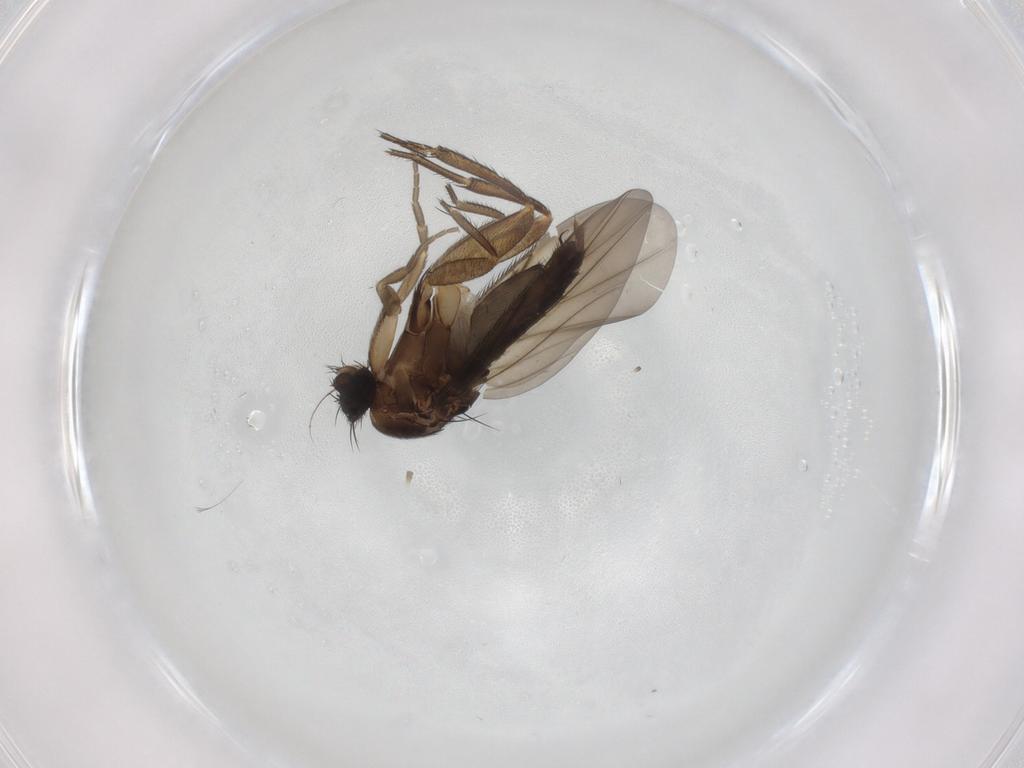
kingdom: Animalia
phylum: Arthropoda
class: Insecta
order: Diptera
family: Phoridae
